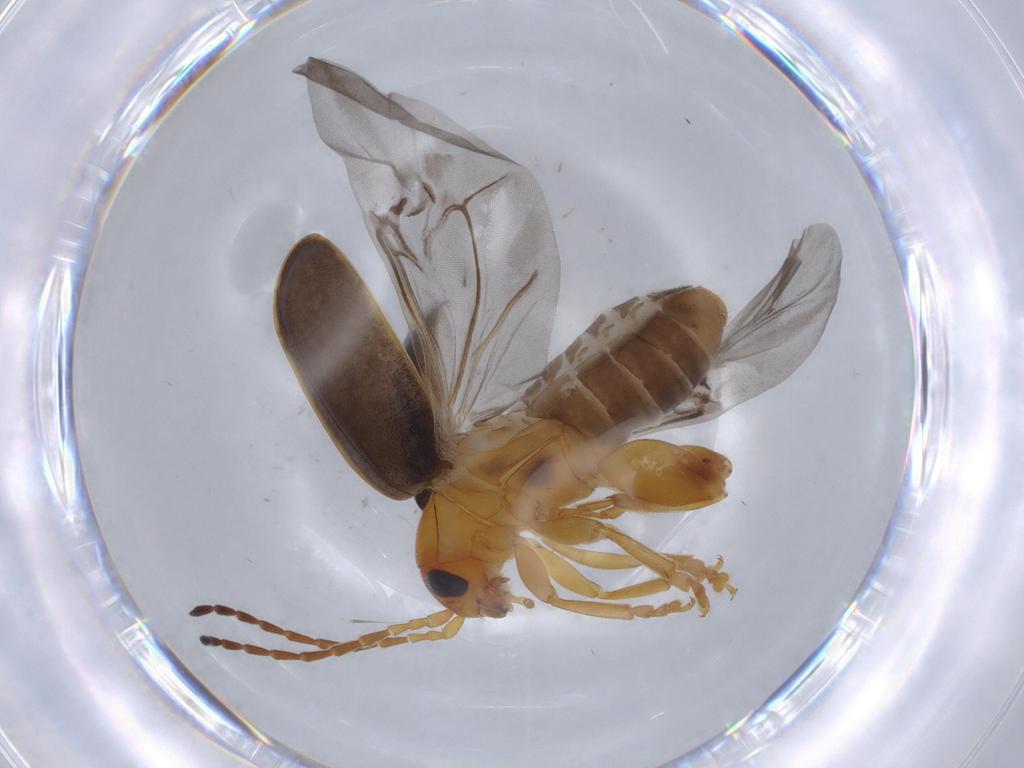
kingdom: Animalia
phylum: Arthropoda
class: Insecta
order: Coleoptera
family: Chrysomelidae
